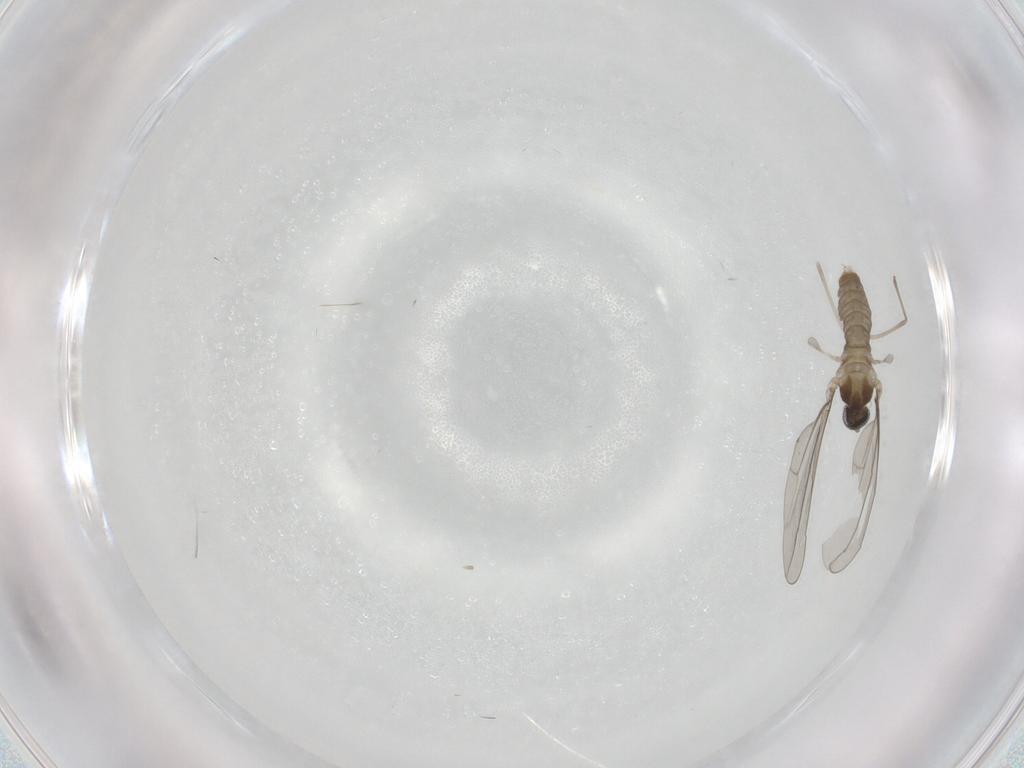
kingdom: Animalia
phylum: Arthropoda
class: Insecta
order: Diptera
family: Cecidomyiidae
